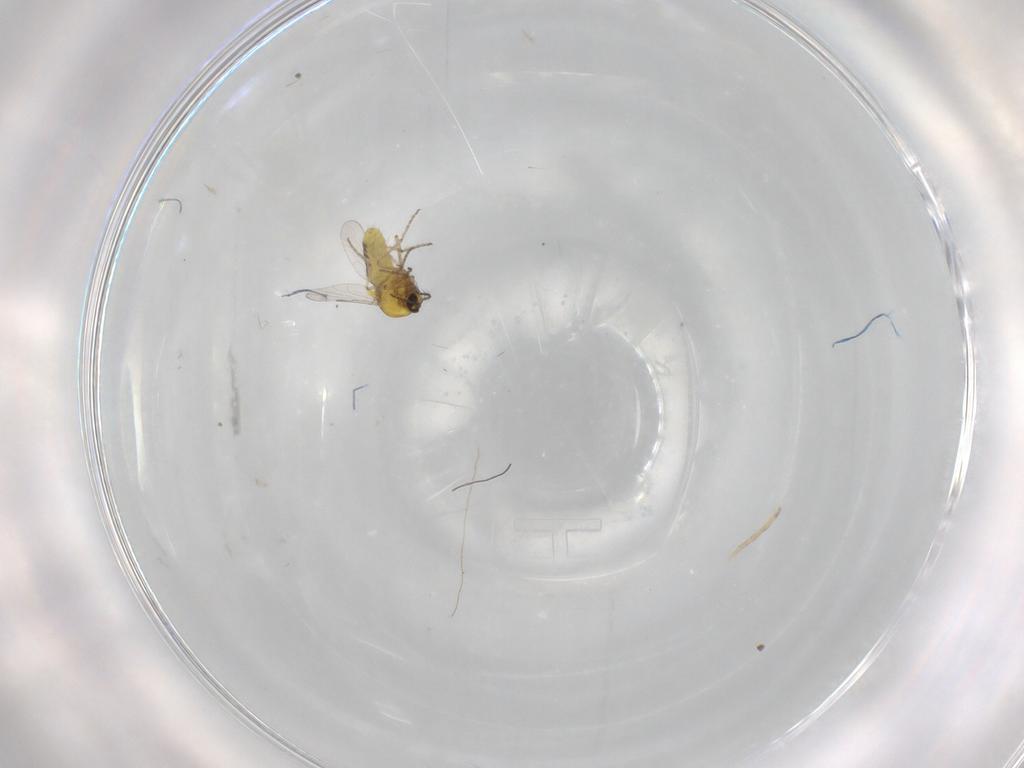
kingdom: Animalia
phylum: Arthropoda
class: Insecta
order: Diptera
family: Ceratopogonidae
